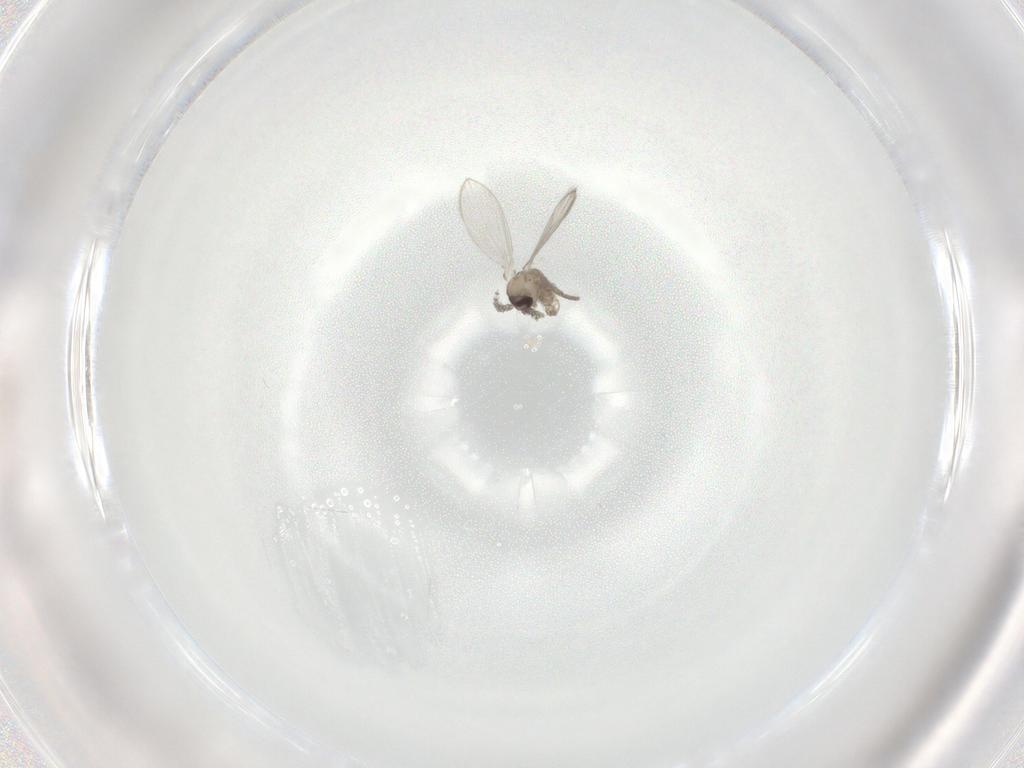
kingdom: Animalia
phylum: Arthropoda
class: Insecta
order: Diptera
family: Psychodidae
